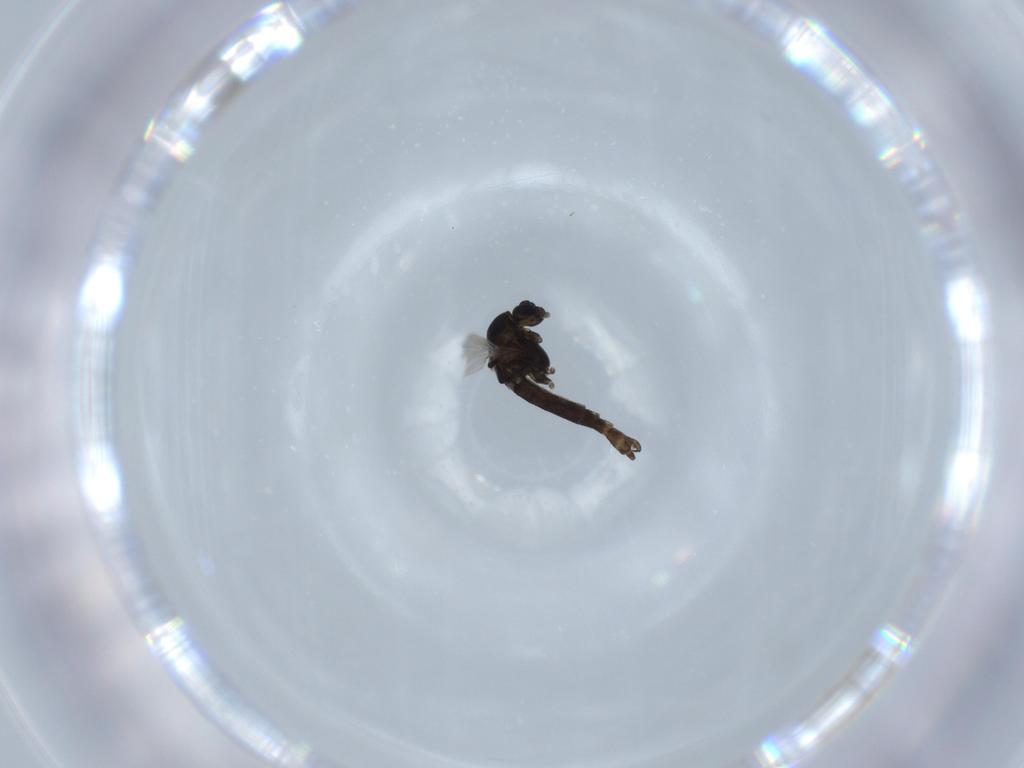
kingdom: Animalia
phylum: Arthropoda
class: Insecta
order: Diptera
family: Chironomidae
